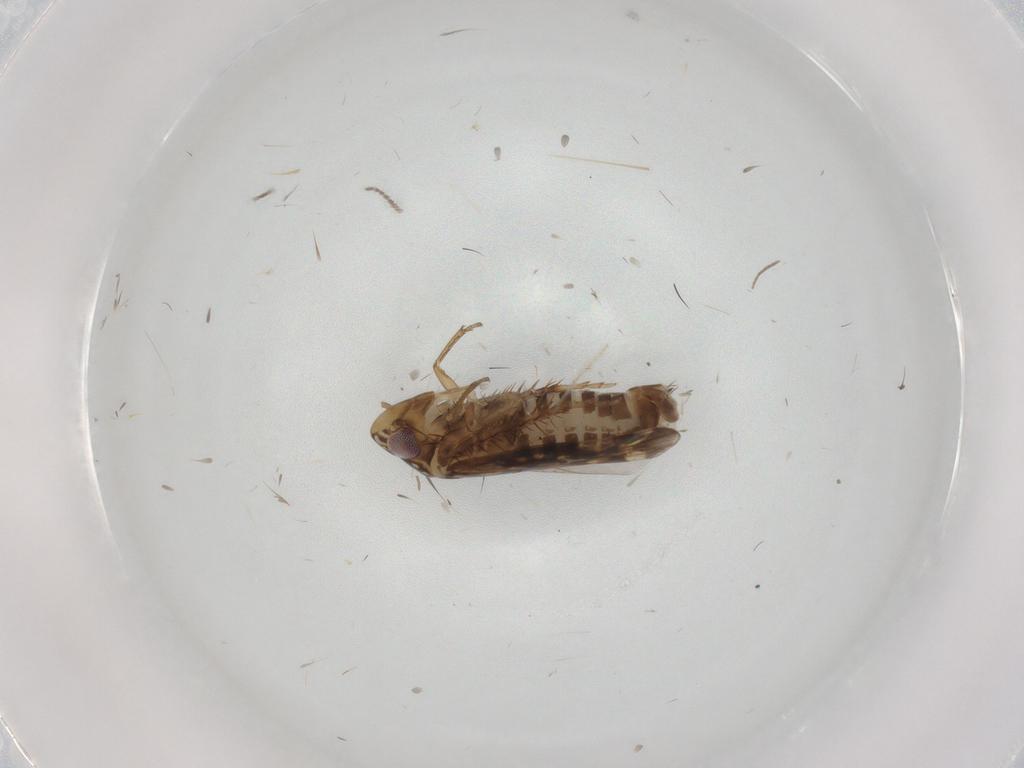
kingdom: Animalia
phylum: Arthropoda
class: Insecta
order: Hemiptera
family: Cicadellidae
